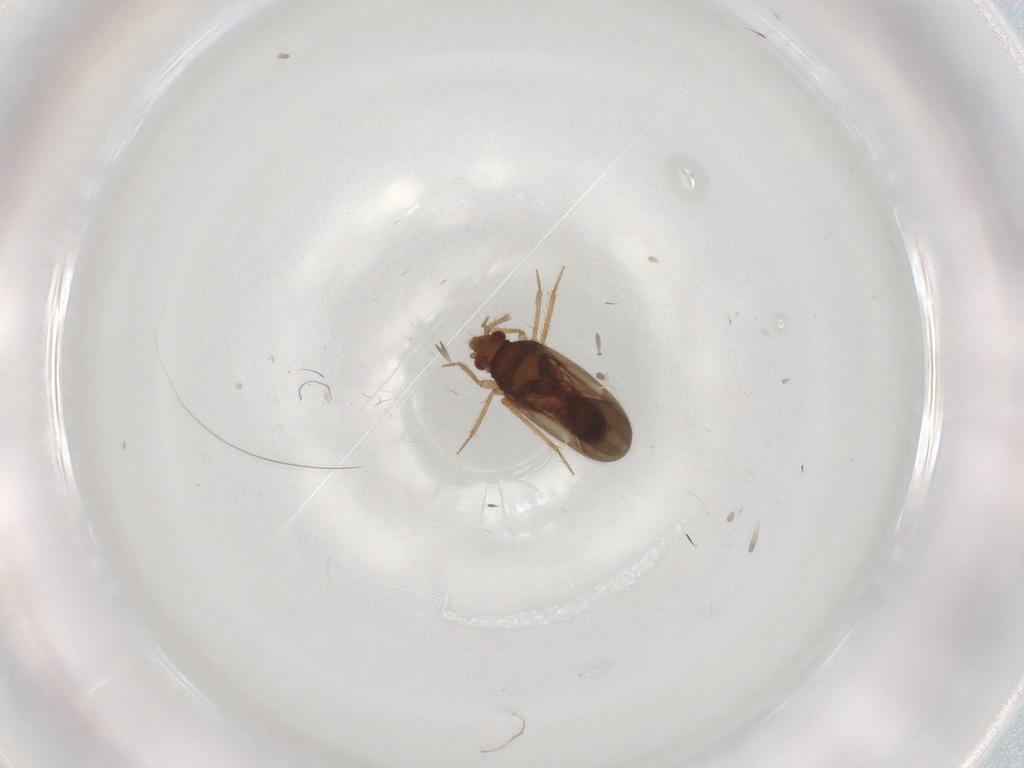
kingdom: Animalia
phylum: Arthropoda
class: Insecta
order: Hemiptera
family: Ceratocombidae
